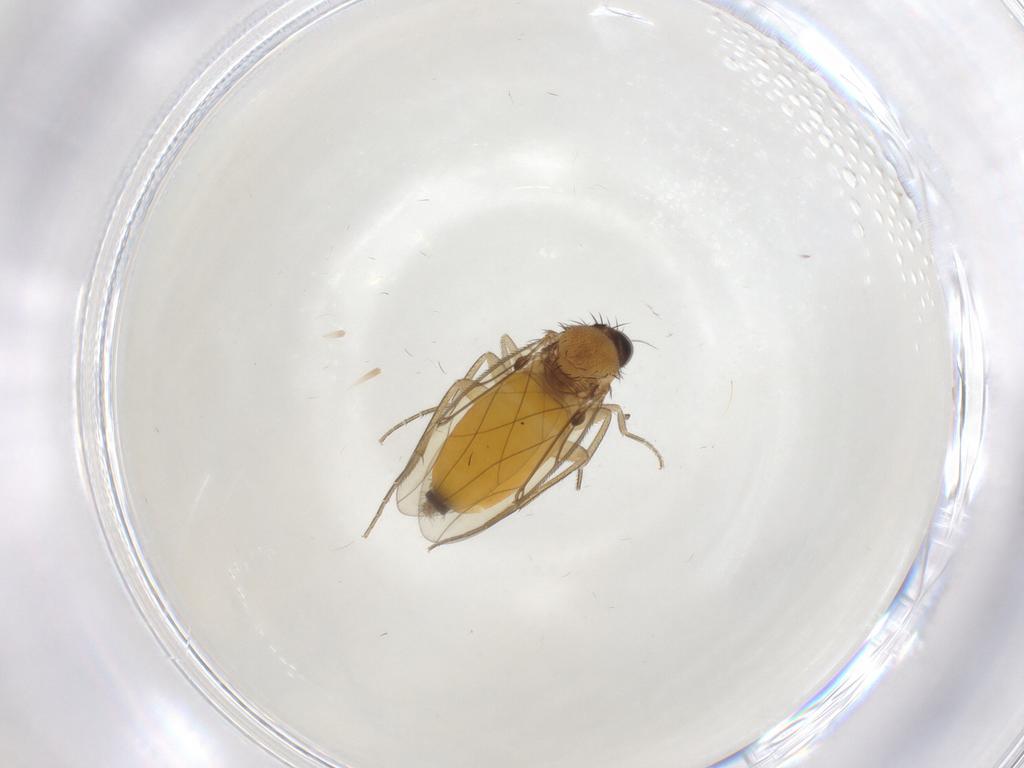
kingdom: Animalia
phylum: Arthropoda
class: Insecta
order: Diptera
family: Phoridae
